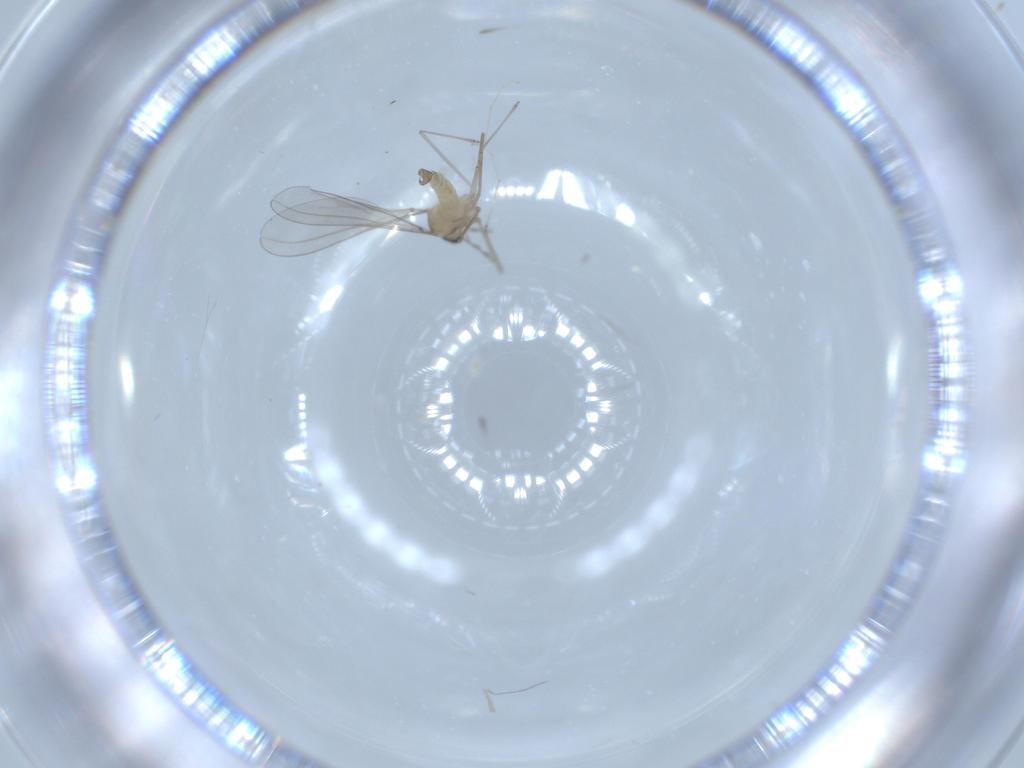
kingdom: Animalia
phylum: Arthropoda
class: Insecta
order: Diptera
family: Cecidomyiidae
